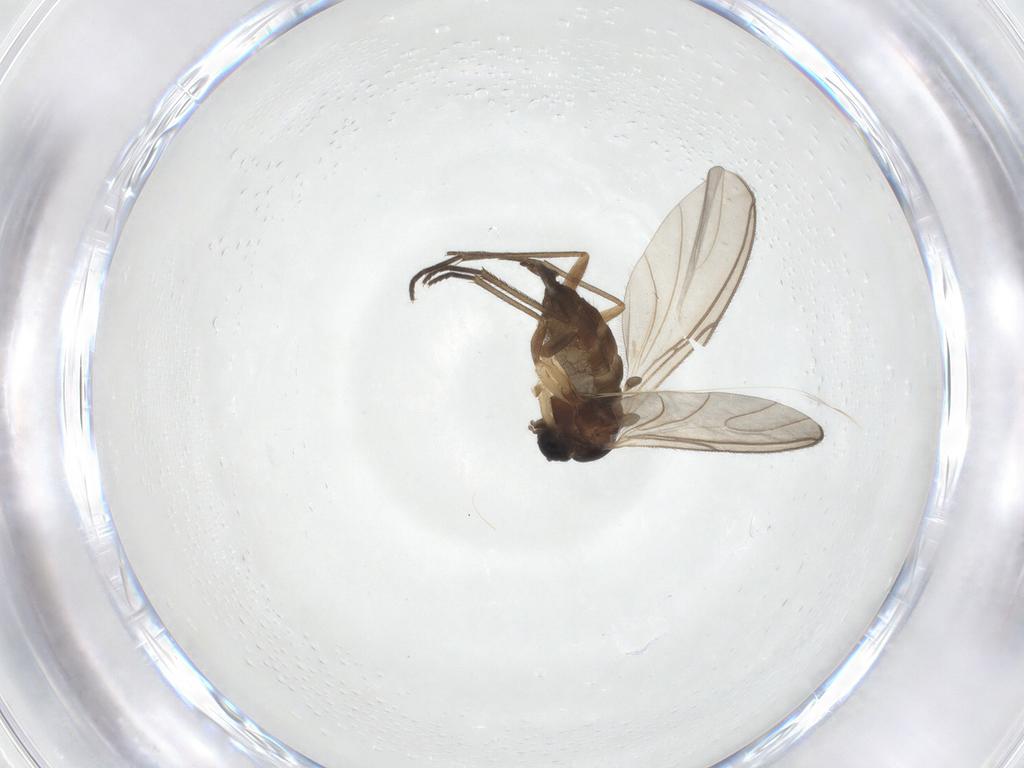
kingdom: Animalia
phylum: Arthropoda
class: Insecta
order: Diptera
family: Sciaridae
